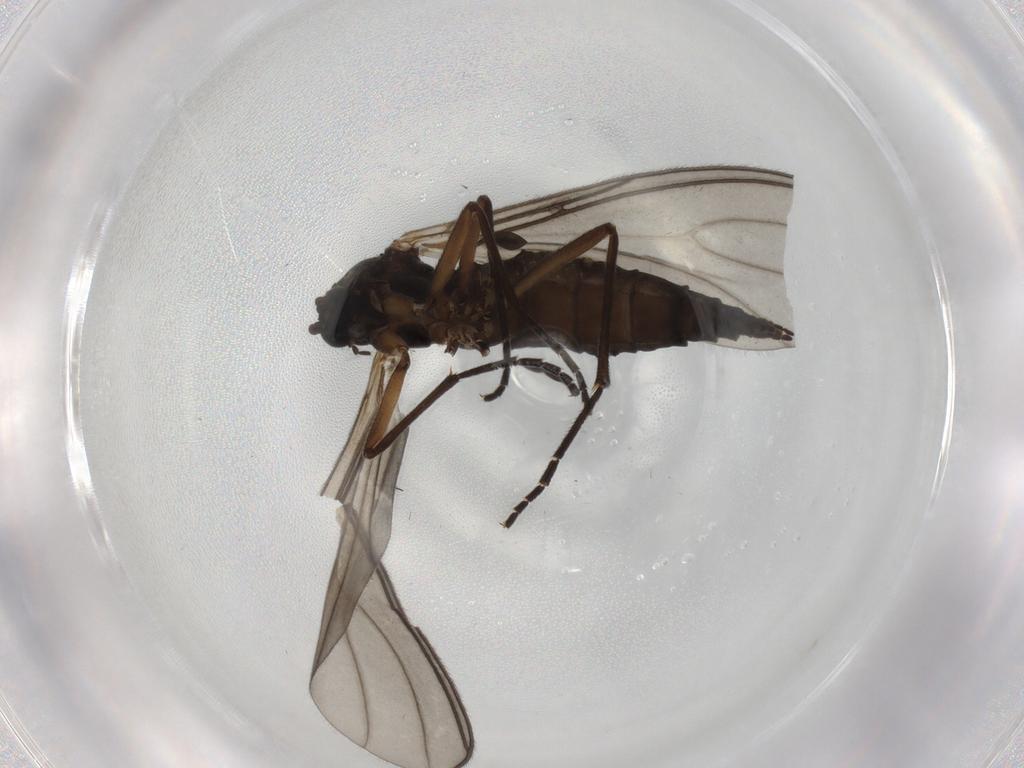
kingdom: Animalia
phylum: Arthropoda
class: Insecta
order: Diptera
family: Sciaridae
